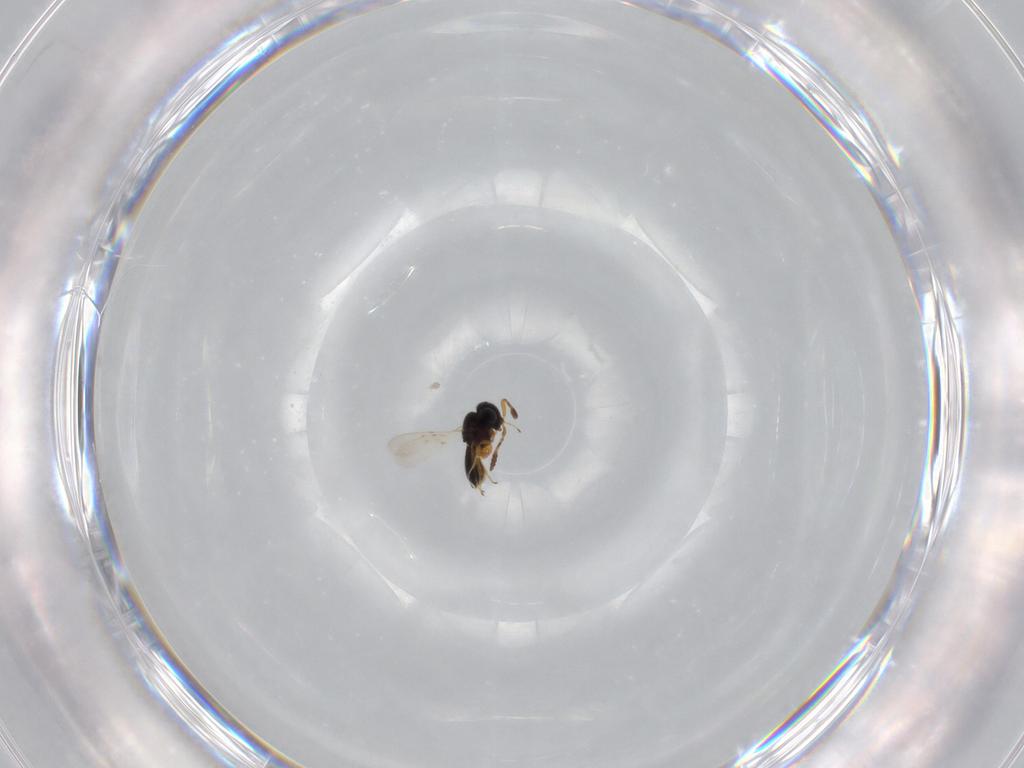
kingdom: Animalia
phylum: Arthropoda
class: Insecta
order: Hymenoptera
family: Scelionidae
